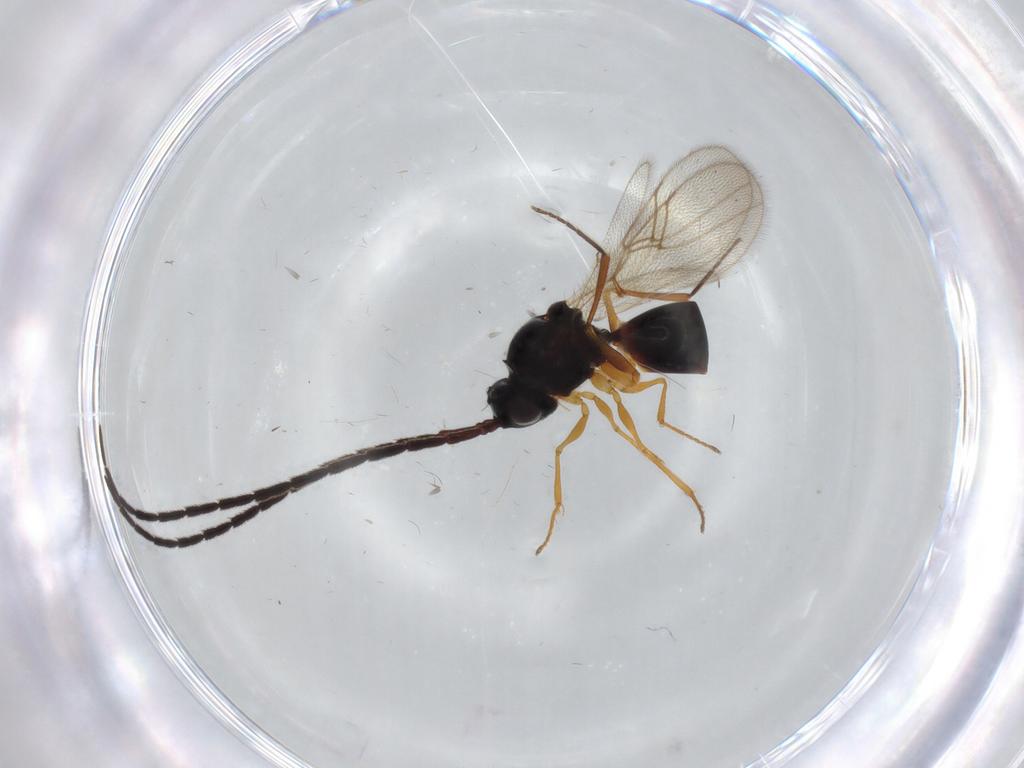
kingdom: Animalia
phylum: Arthropoda
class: Insecta
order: Hymenoptera
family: Figitidae
